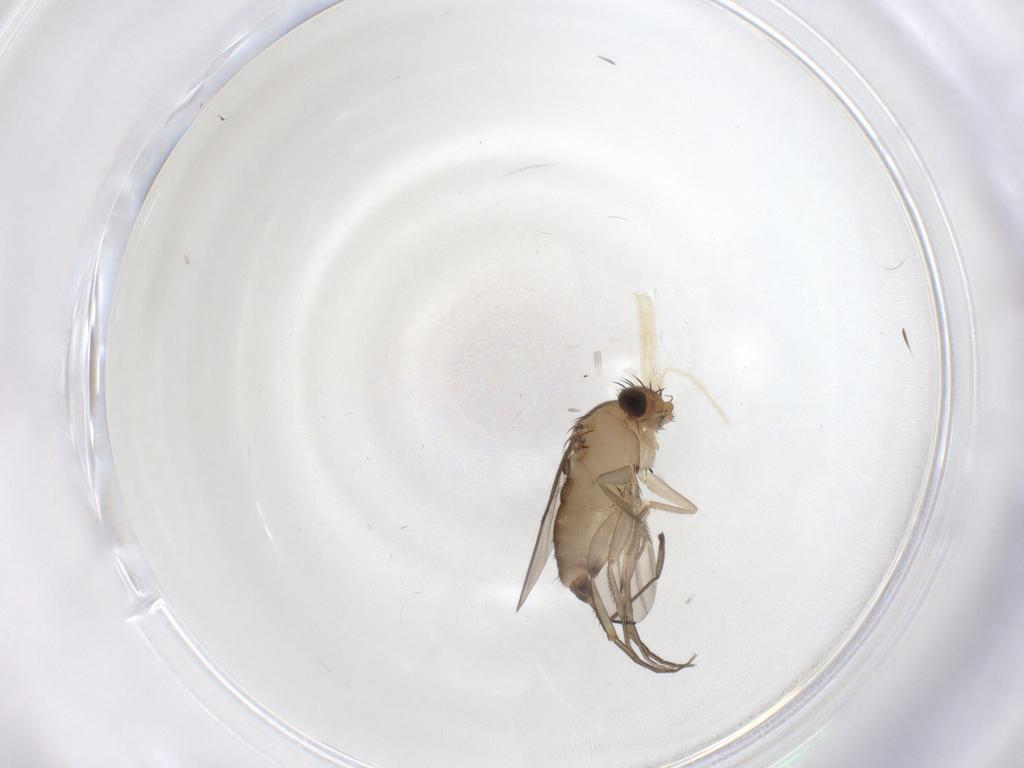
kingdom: Animalia
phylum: Arthropoda
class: Insecta
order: Diptera
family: Phoridae
